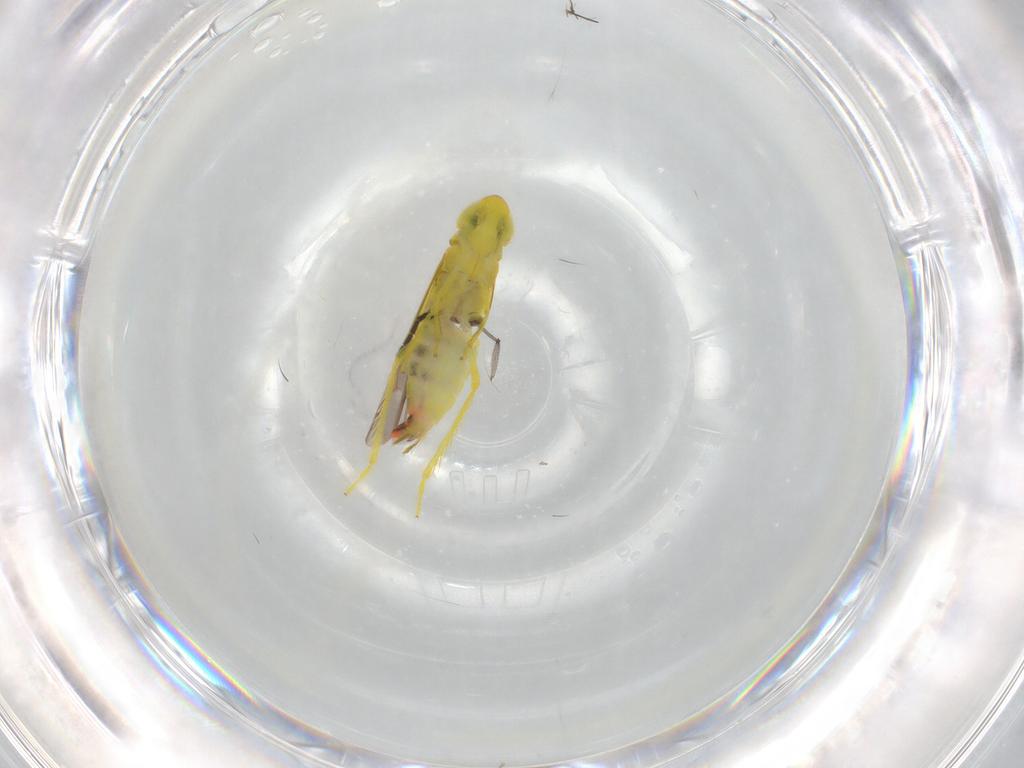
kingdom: Animalia
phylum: Arthropoda
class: Insecta
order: Hemiptera
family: Cicadellidae
